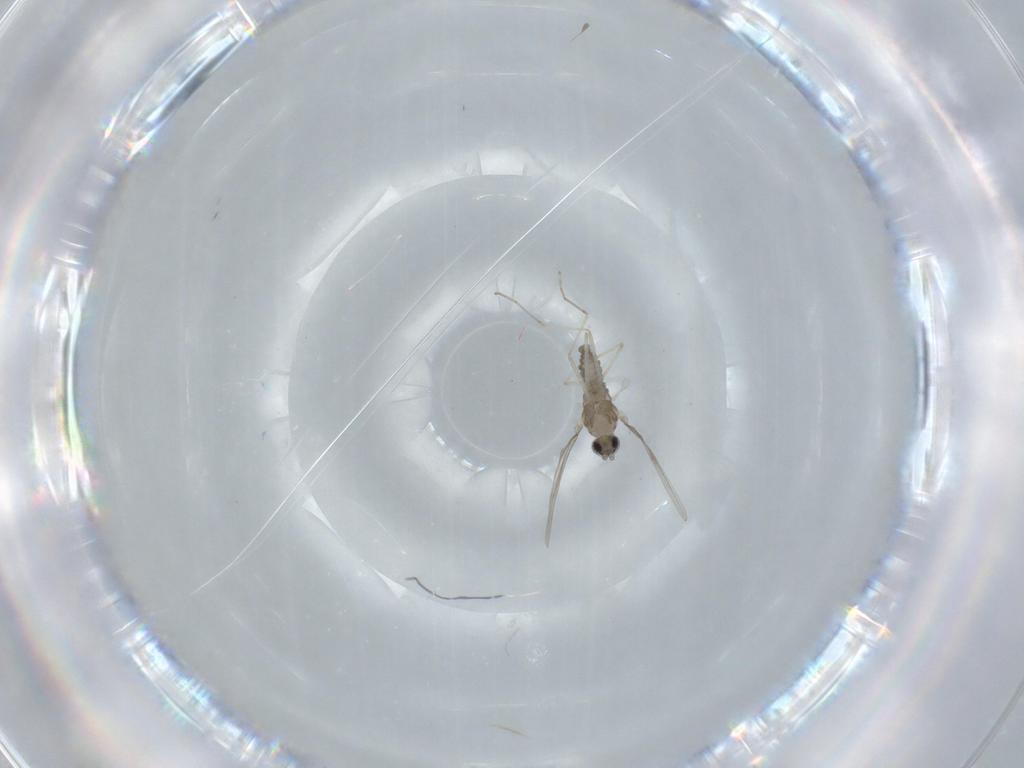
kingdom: Animalia
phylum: Arthropoda
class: Insecta
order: Diptera
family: Cecidomyiidae
